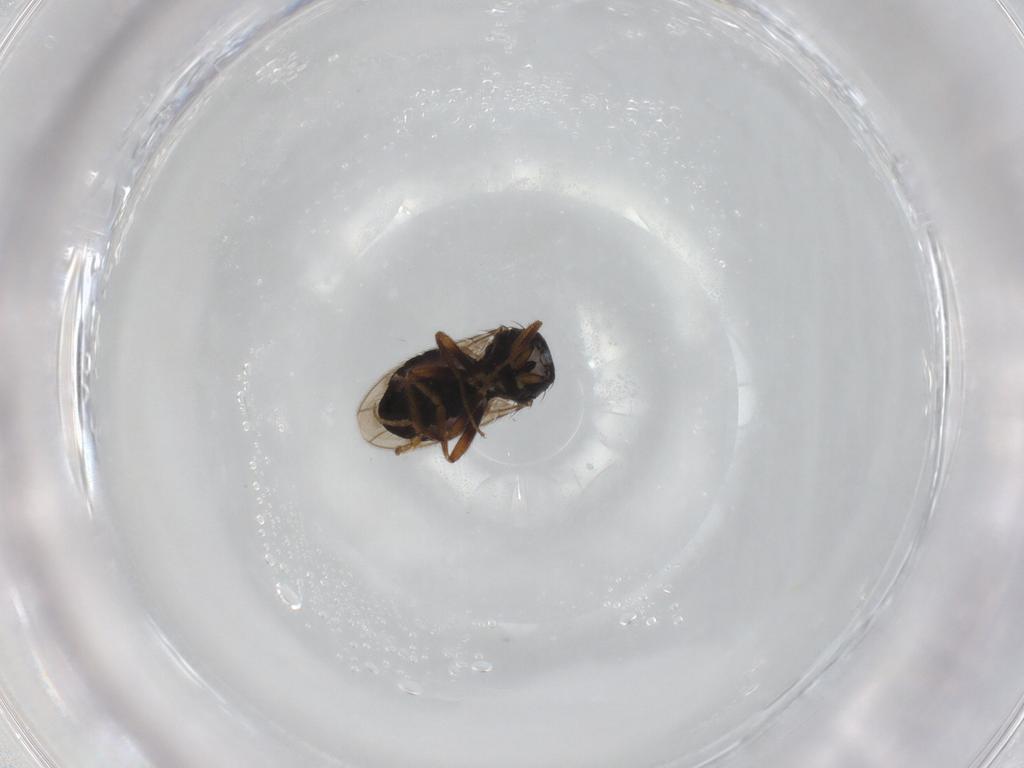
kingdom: Animalia
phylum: Arthropoda
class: Insecta
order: Diptera
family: Sphaeroceridae
